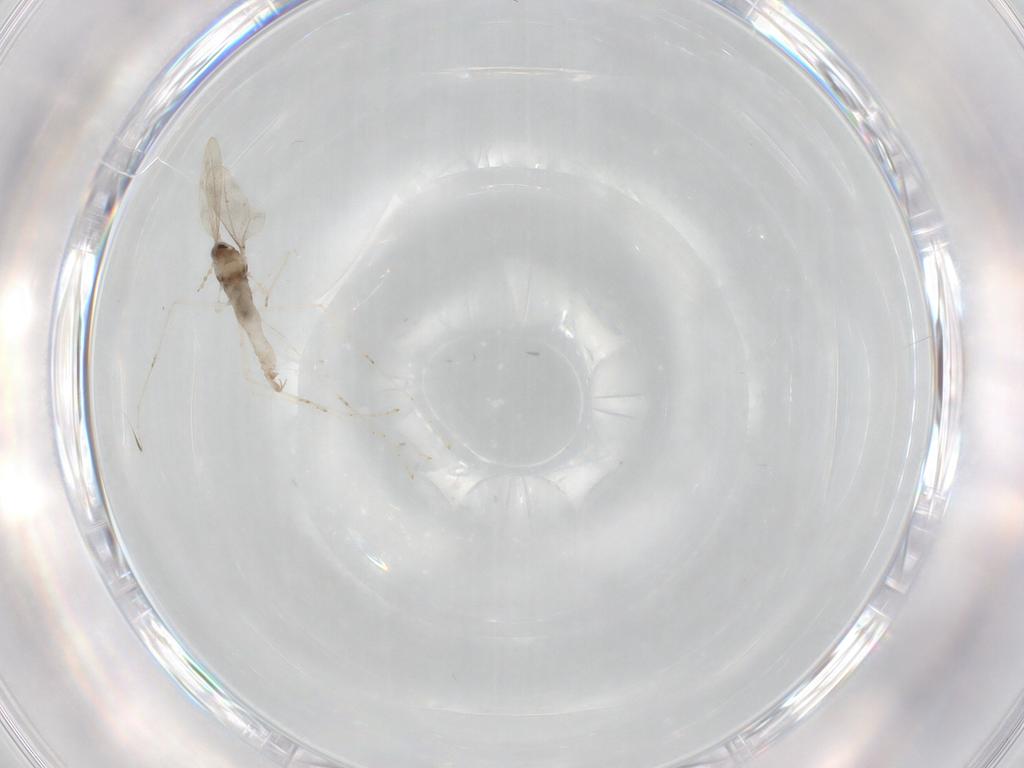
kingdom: Animalia
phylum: Arthropoda
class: Insecta
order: Diptera
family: Cecidomyiidae
